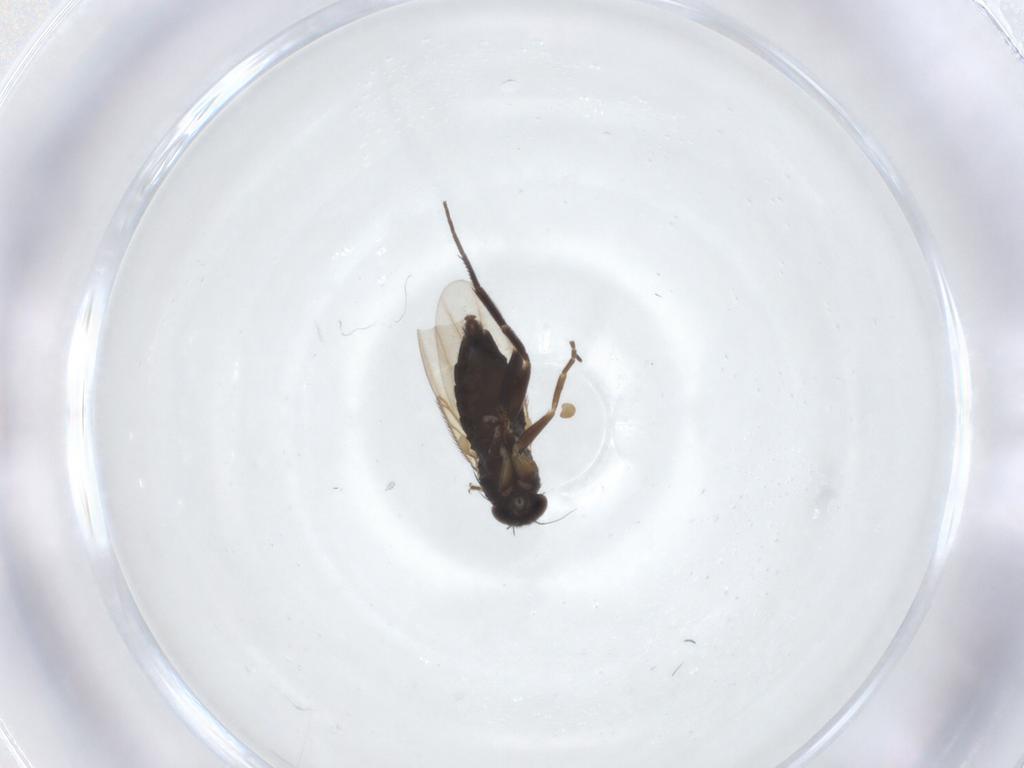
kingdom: Animalia
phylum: Arthropoda
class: Insecta
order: Diptera
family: Phoridae
